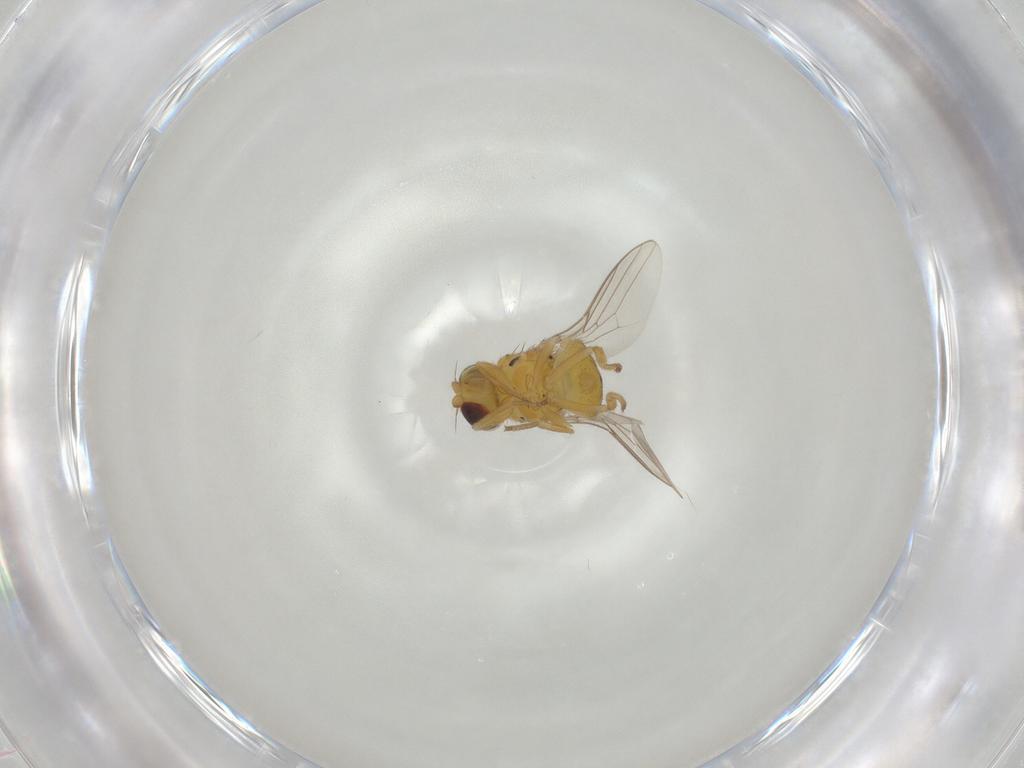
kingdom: Animalia
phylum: Arthropoda
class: Insecta
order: Diptera
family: Chloropidae
